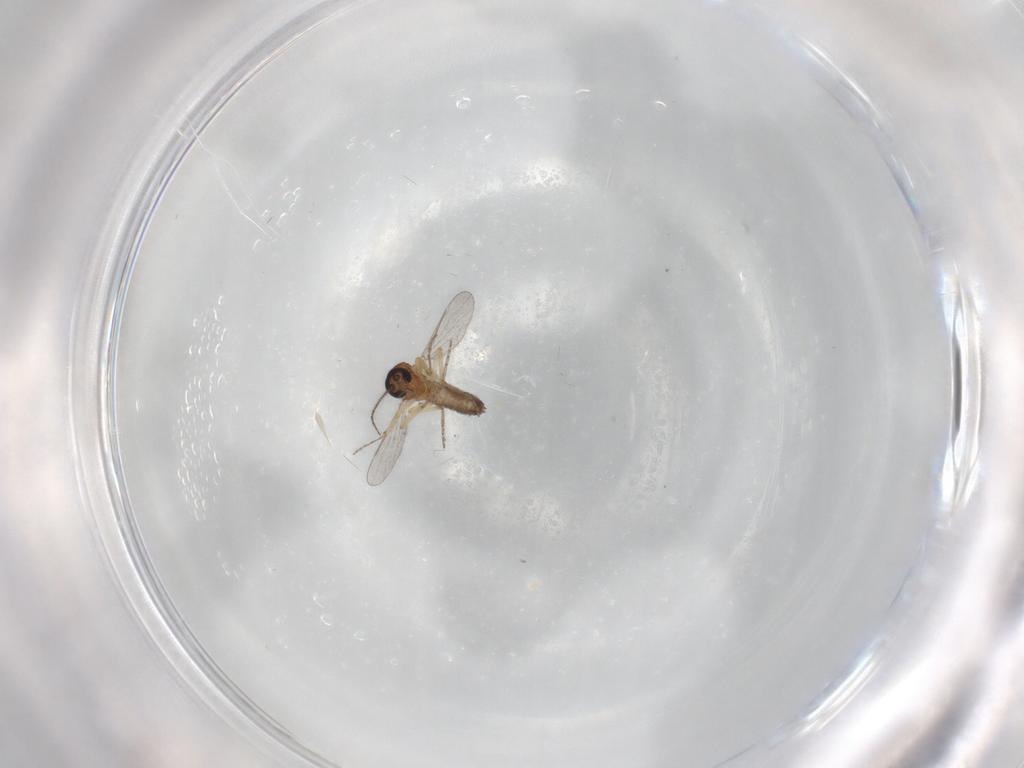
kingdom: Animalia
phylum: Arthropoda
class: Insecta
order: Diptera
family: Ceratopogonidae
